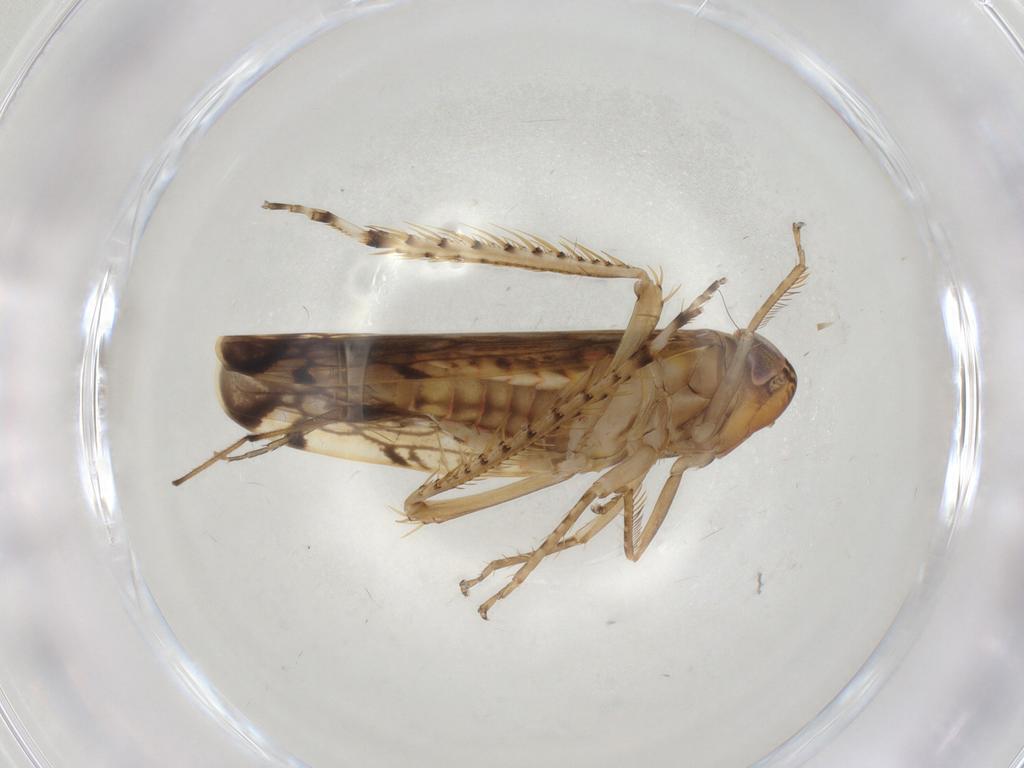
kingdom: Animalia
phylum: Arthropoda
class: Insecta
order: Hemiptera
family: Cicadellidae
